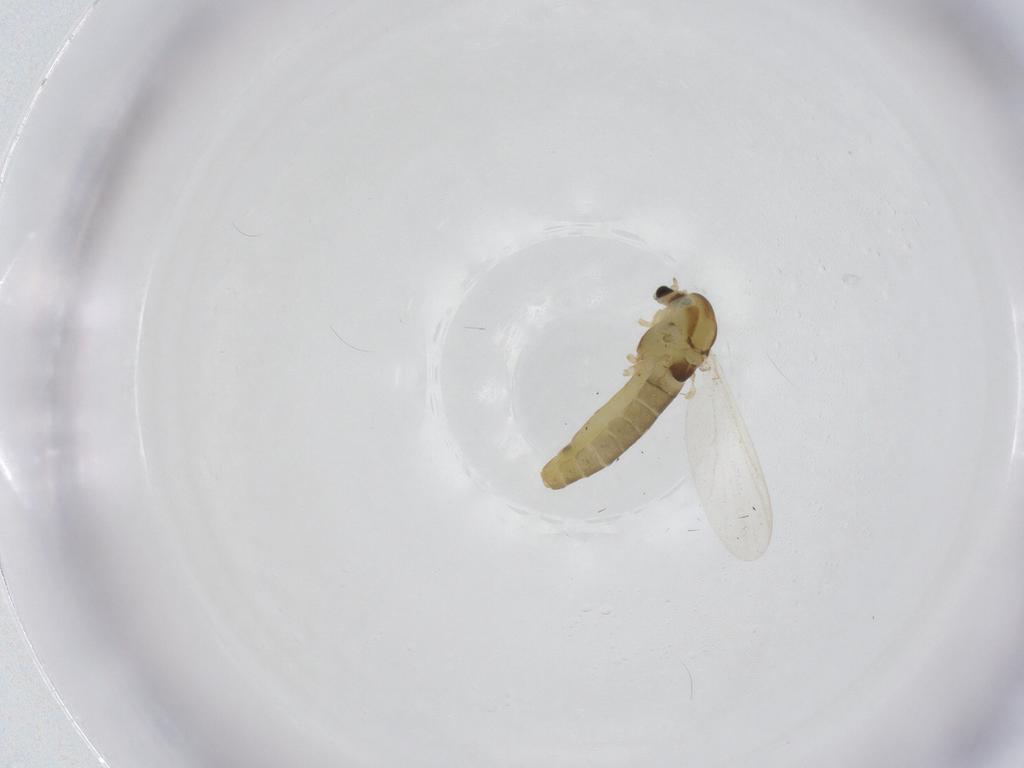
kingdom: Animalia
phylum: Arthropoda
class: Insecta
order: Diptera
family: Chironomidae
